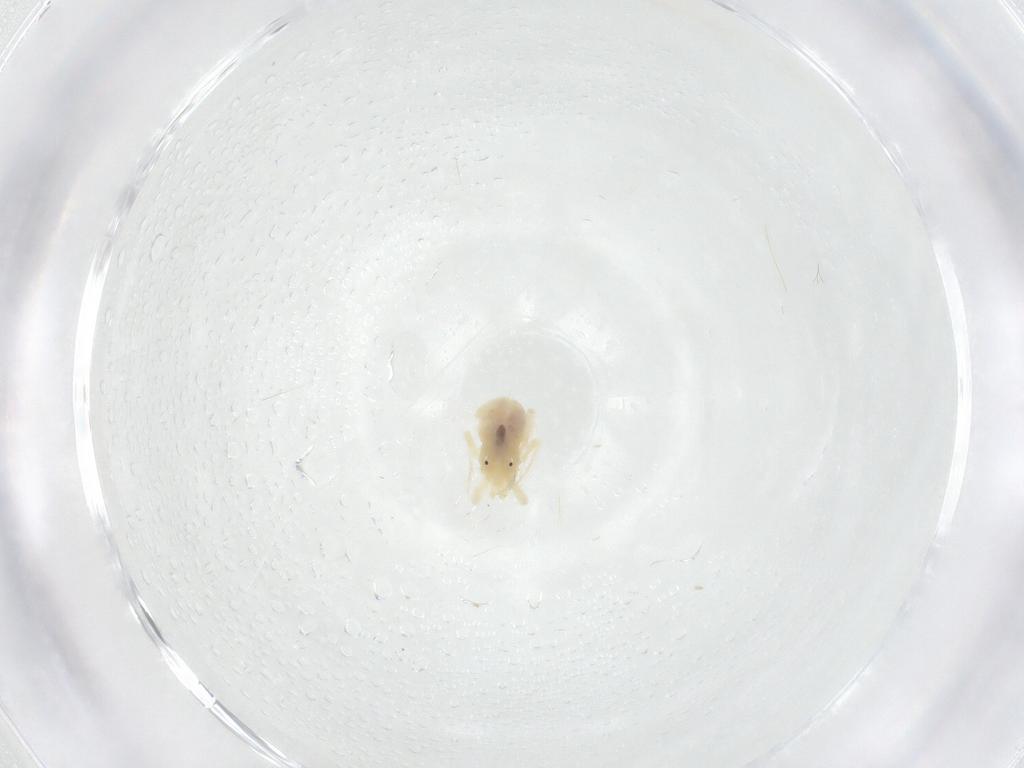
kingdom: Animalia
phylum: Arthropoda
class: Arachnida
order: Trombidiformes
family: Anystidae
